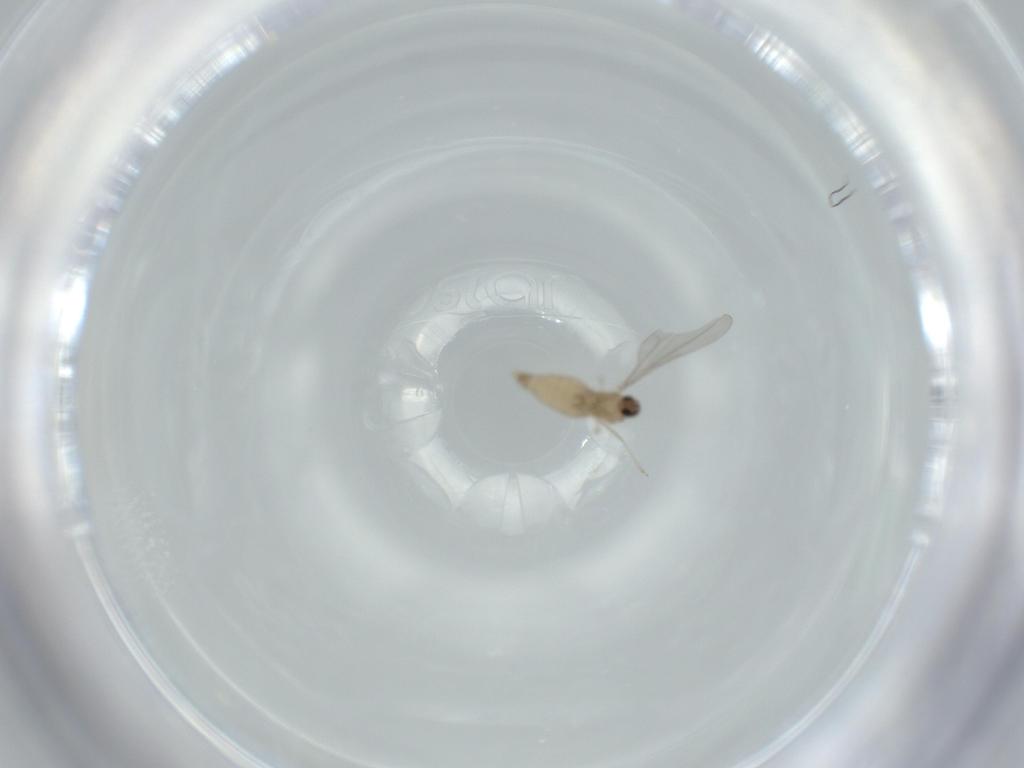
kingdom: Animalia
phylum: Arthropoda
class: Insecta
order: Diptera
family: Cecidomyiidae
